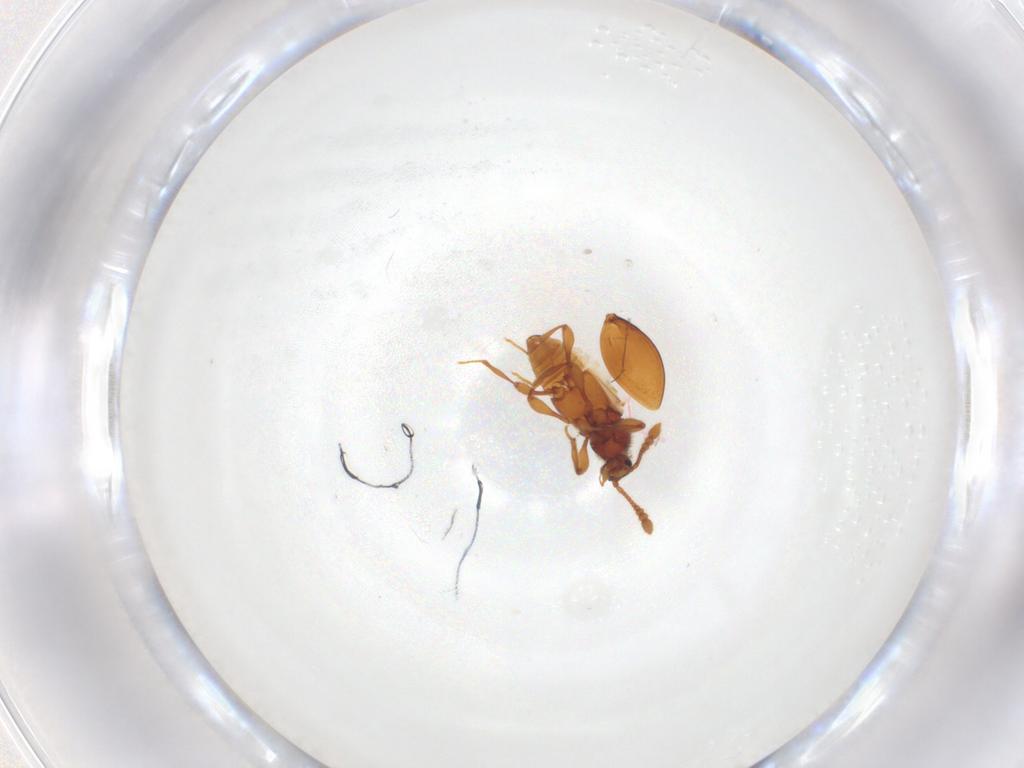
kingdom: Animalia
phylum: Arthropoda
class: Insecta
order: Coleoptera
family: Staphylinidae
